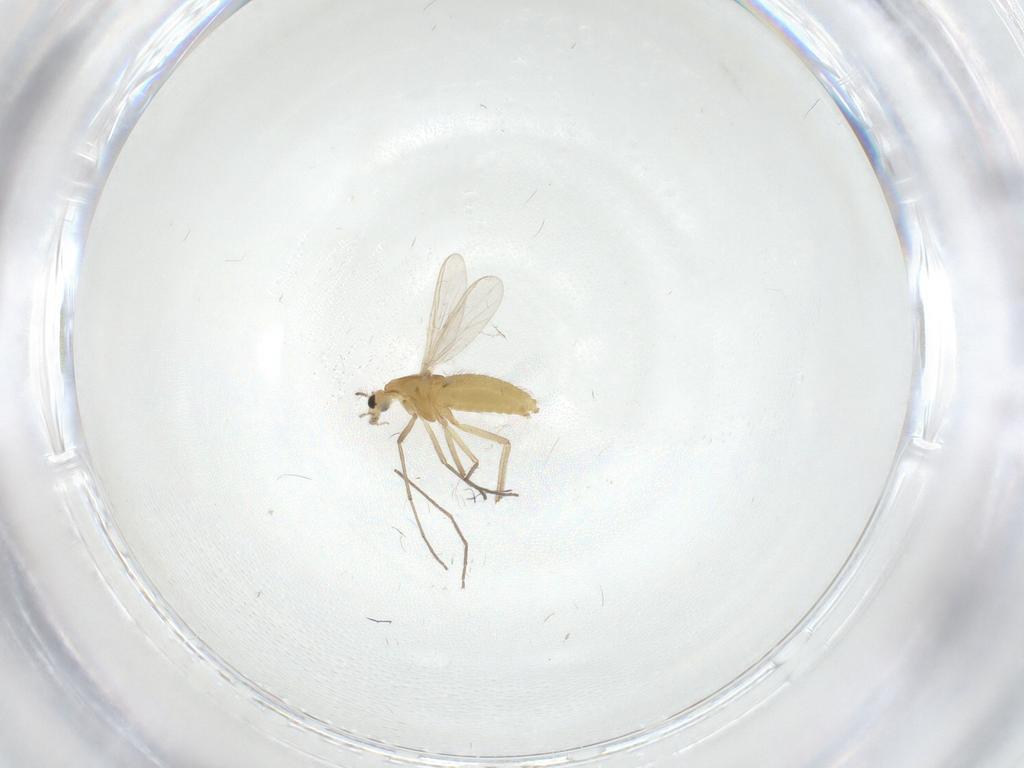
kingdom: Animalia
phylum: Arthropoda
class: Insecta
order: Diptera
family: Chironomidae
